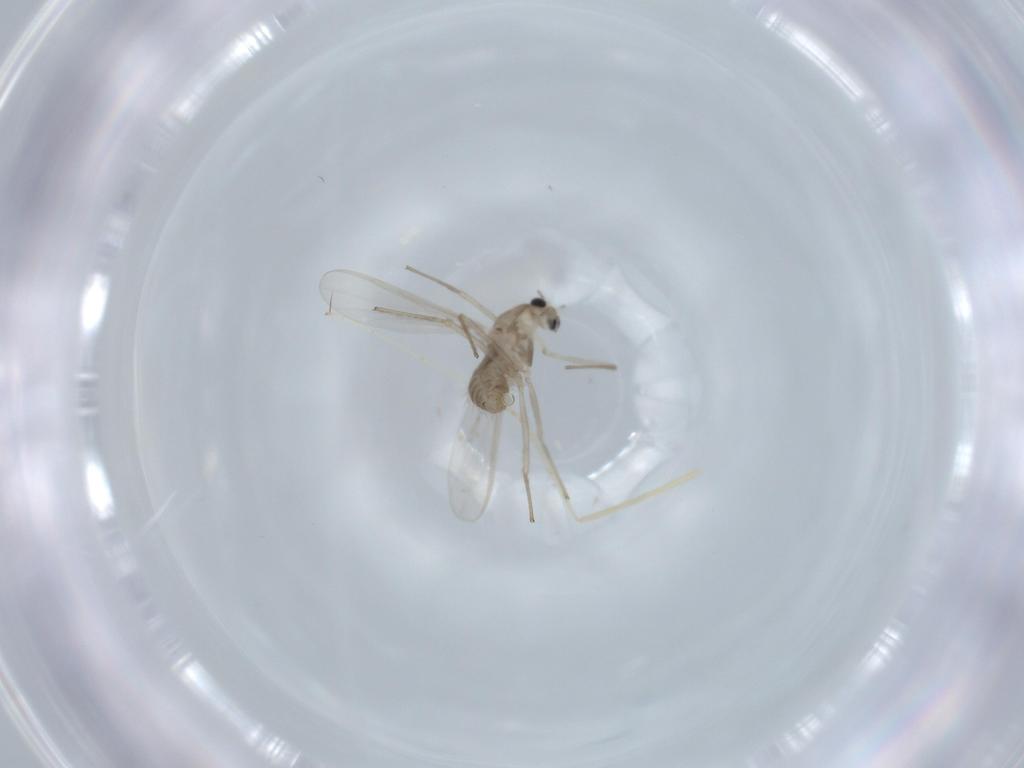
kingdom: Animalia
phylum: Arthropoda
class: Insecta
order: Diptera
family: Chironomidae
